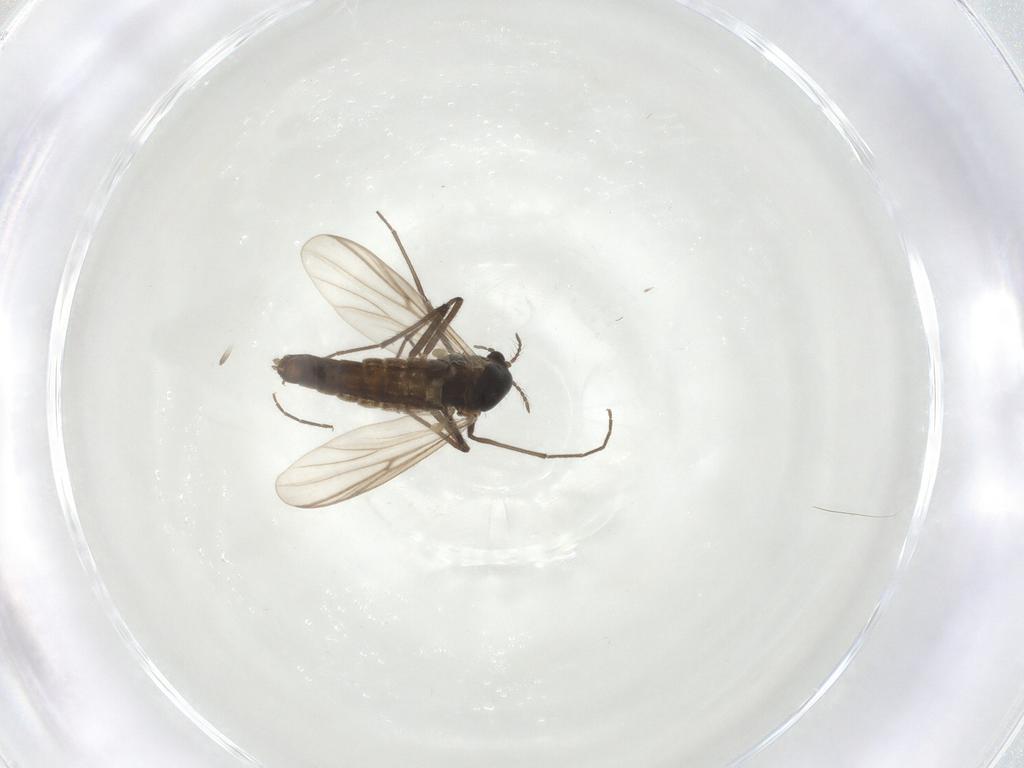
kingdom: Animalia
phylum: Arthropoda
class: Insecta
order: Diptera
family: Chironomidae
